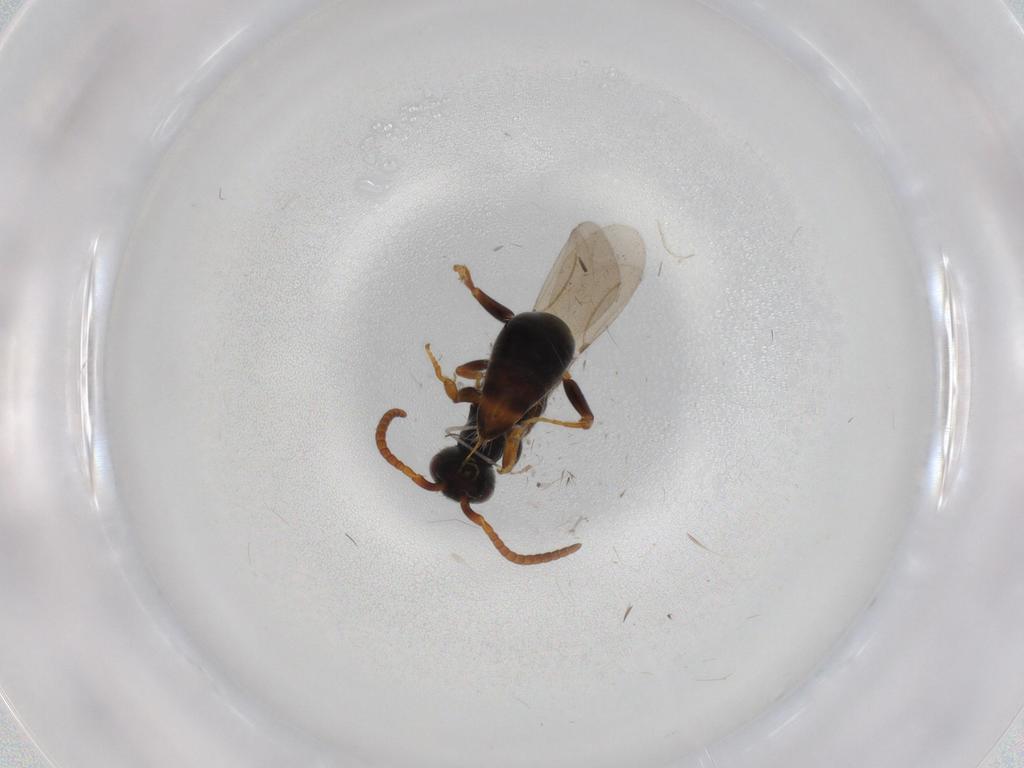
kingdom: Animalia
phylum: Arthropoda
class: Insecta
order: Hymenoptera
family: Bethylidae
